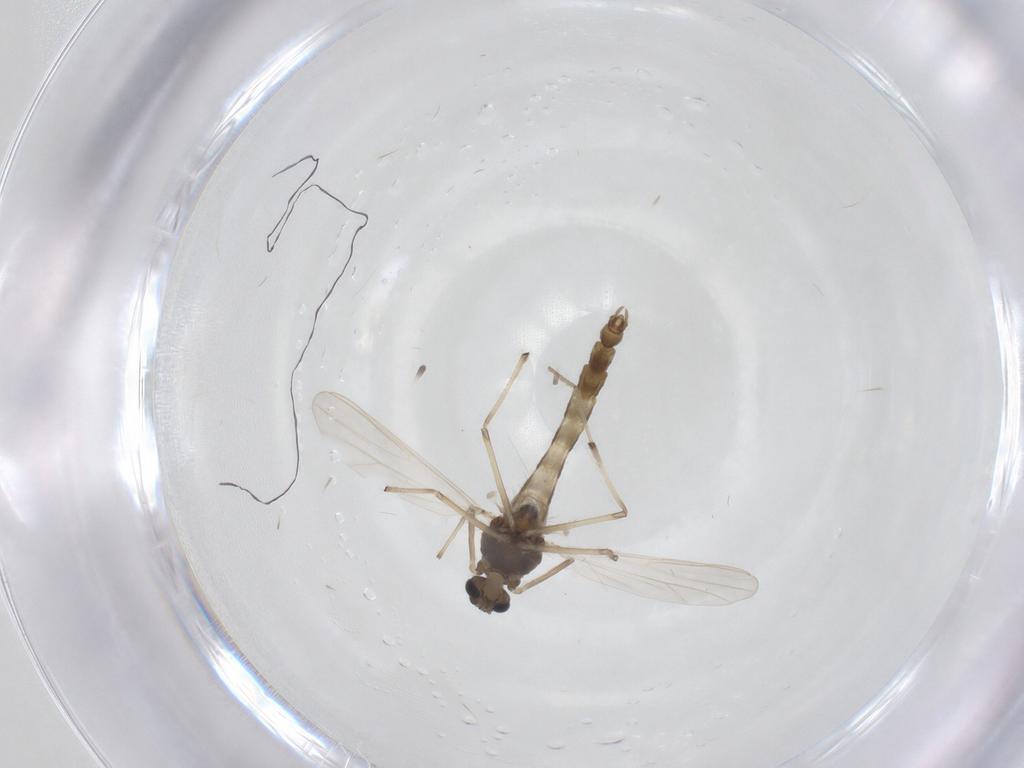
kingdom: Animalia
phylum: Arthropoda
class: Insecta
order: Diptera
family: Chironomidae
